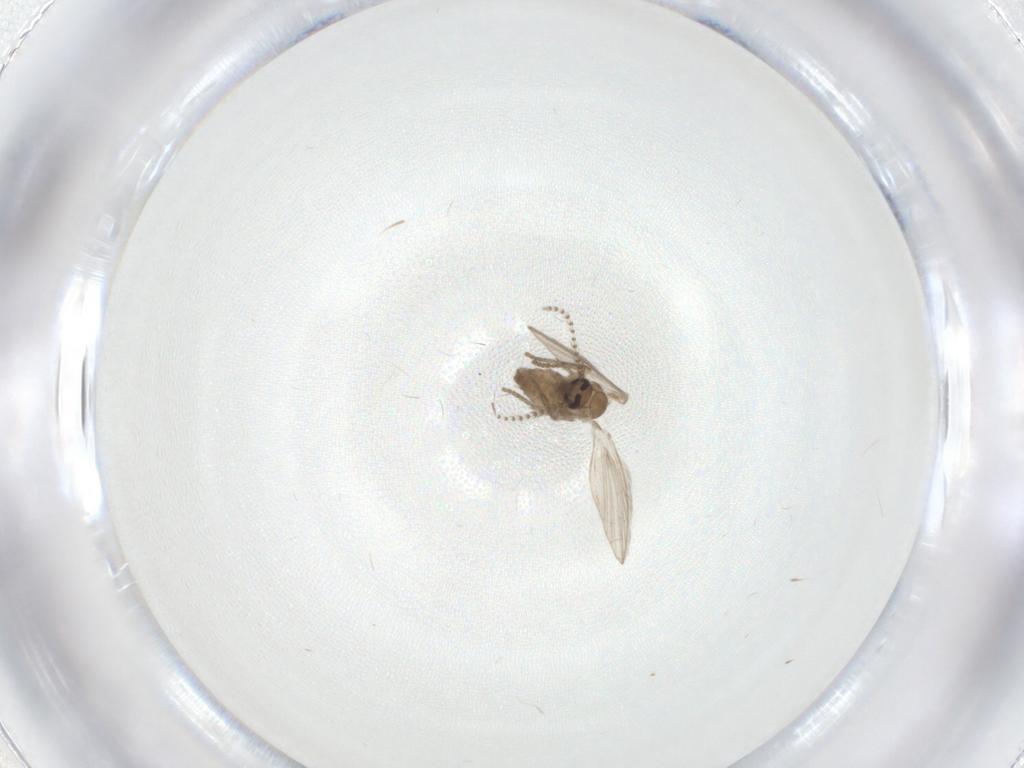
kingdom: Animalia
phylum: Arthropoda
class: Insecta
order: Diptera
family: Psychodidae
